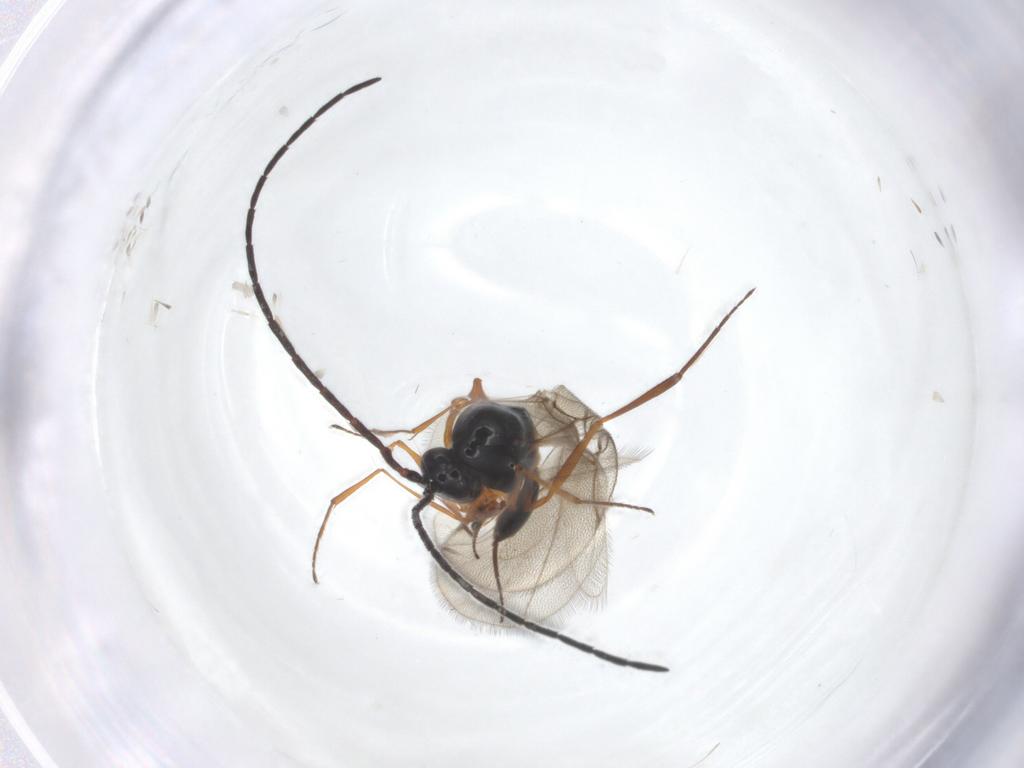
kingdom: Animalia
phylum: Arthropoda
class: Insecta
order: Hymenoptera
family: Figitidae
